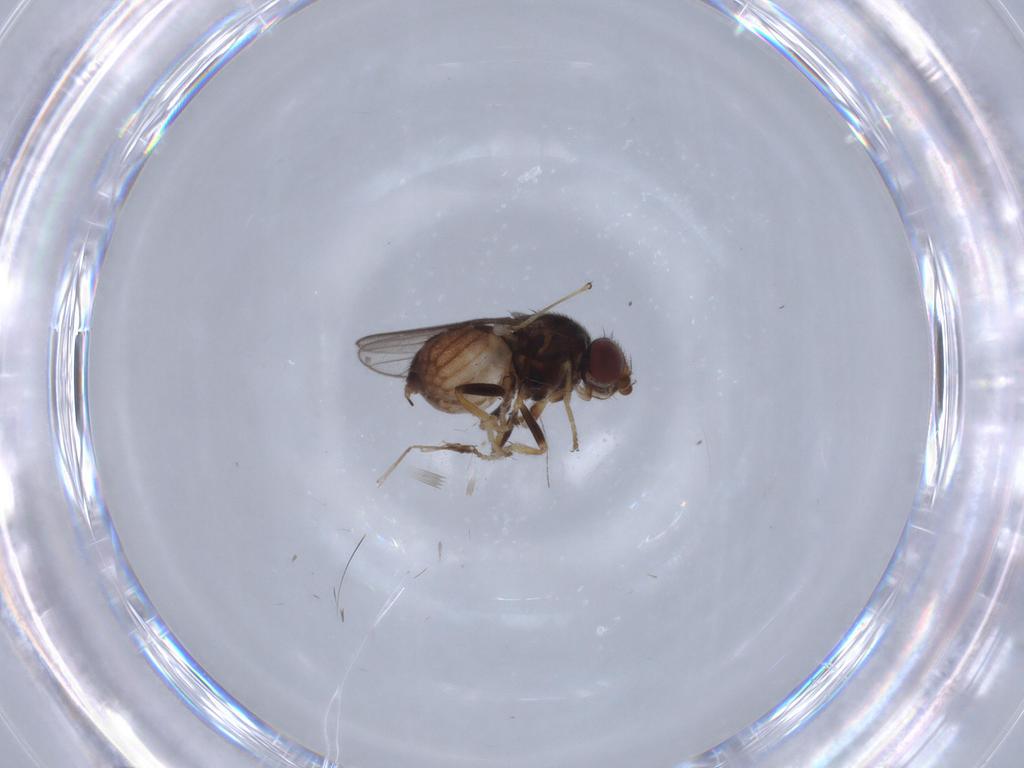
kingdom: Animalia
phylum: Arthropoda
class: Insecta
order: Diptera
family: Chloropidae
